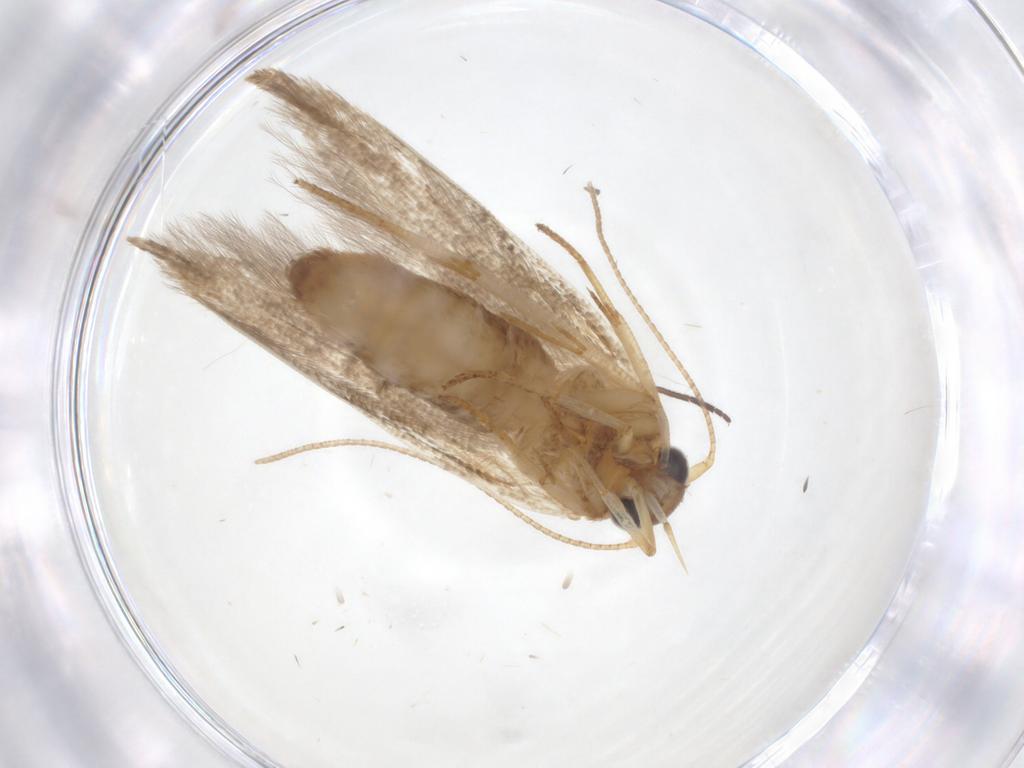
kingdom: Animalia
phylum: Arthropoda
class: Insecta
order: Lepidoptera
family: Blastobasidae
